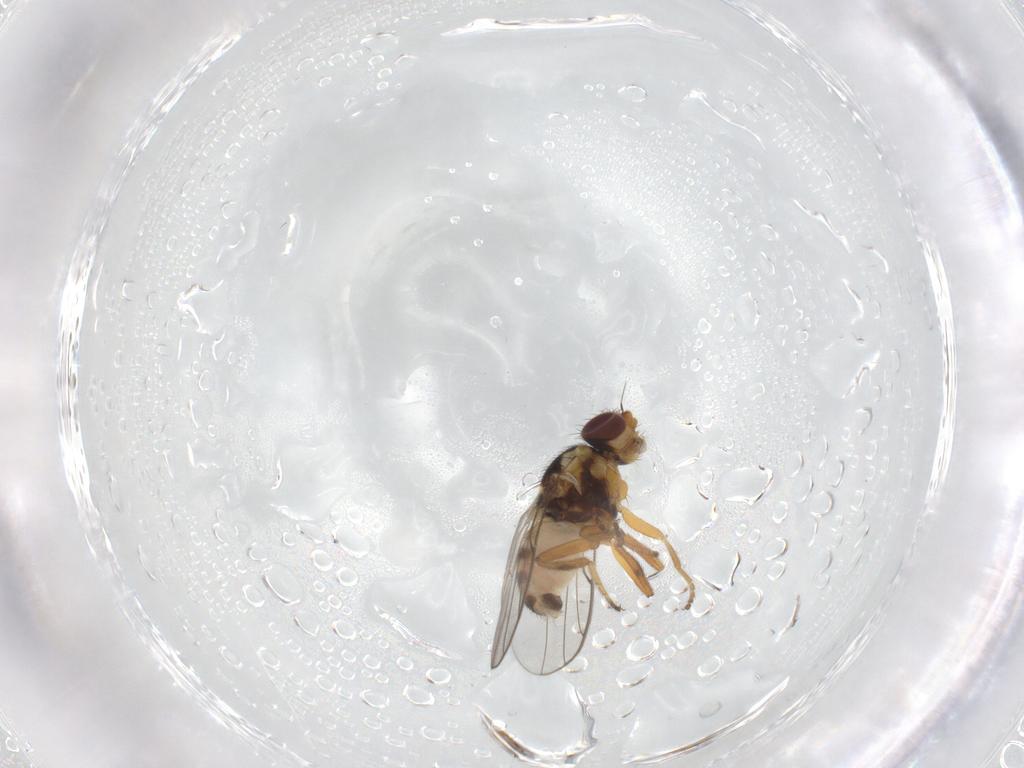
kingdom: Animalia
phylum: Arthropoda
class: Insecta
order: Diptera
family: Chloropidae
